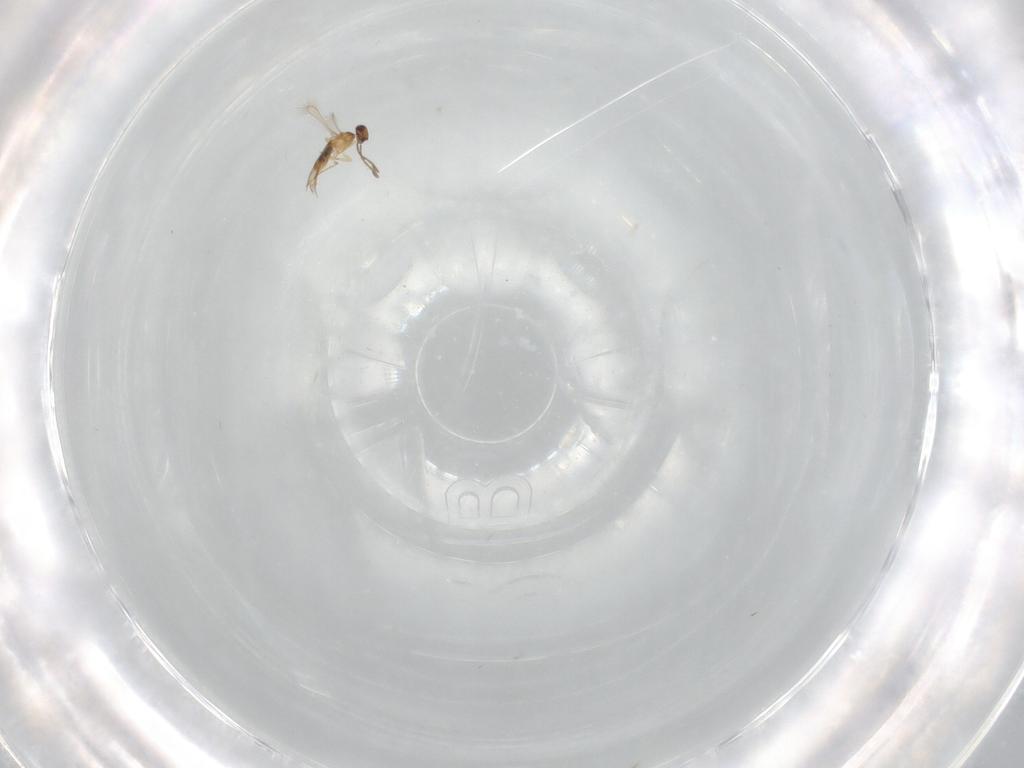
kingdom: Animalia
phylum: Arthropoda
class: Insecta
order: Hymenoptera
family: Mymaridae
